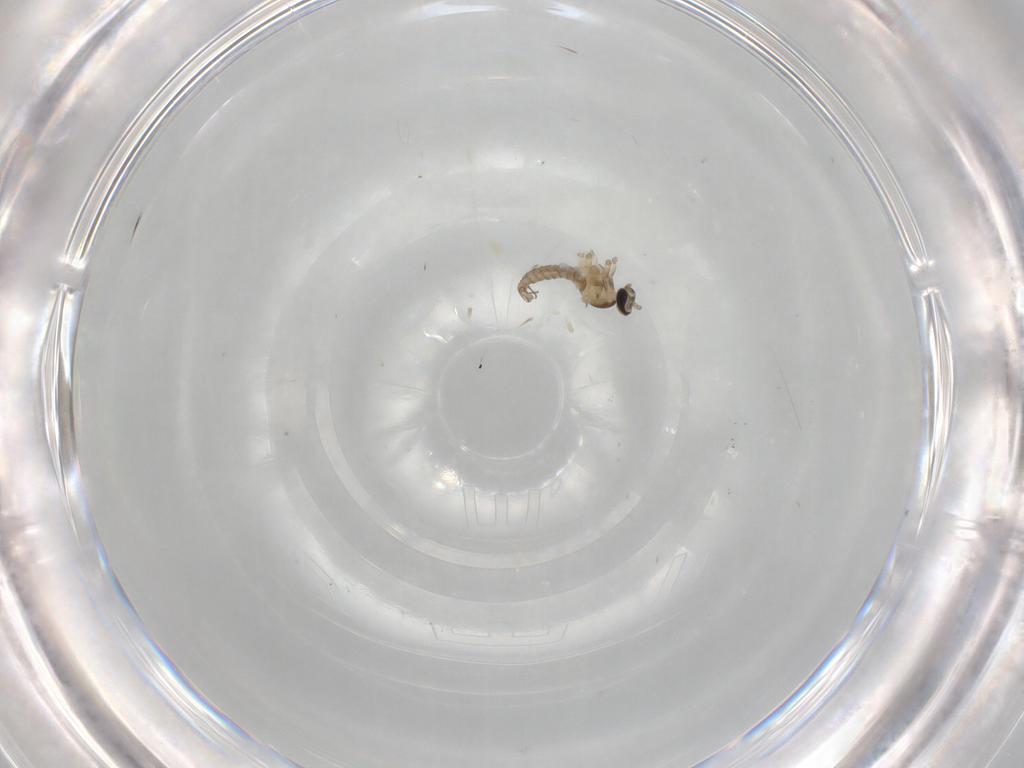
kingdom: Animalia
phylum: Arthropoda
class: Insecta
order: Diptera
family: Cecidomyiidae
